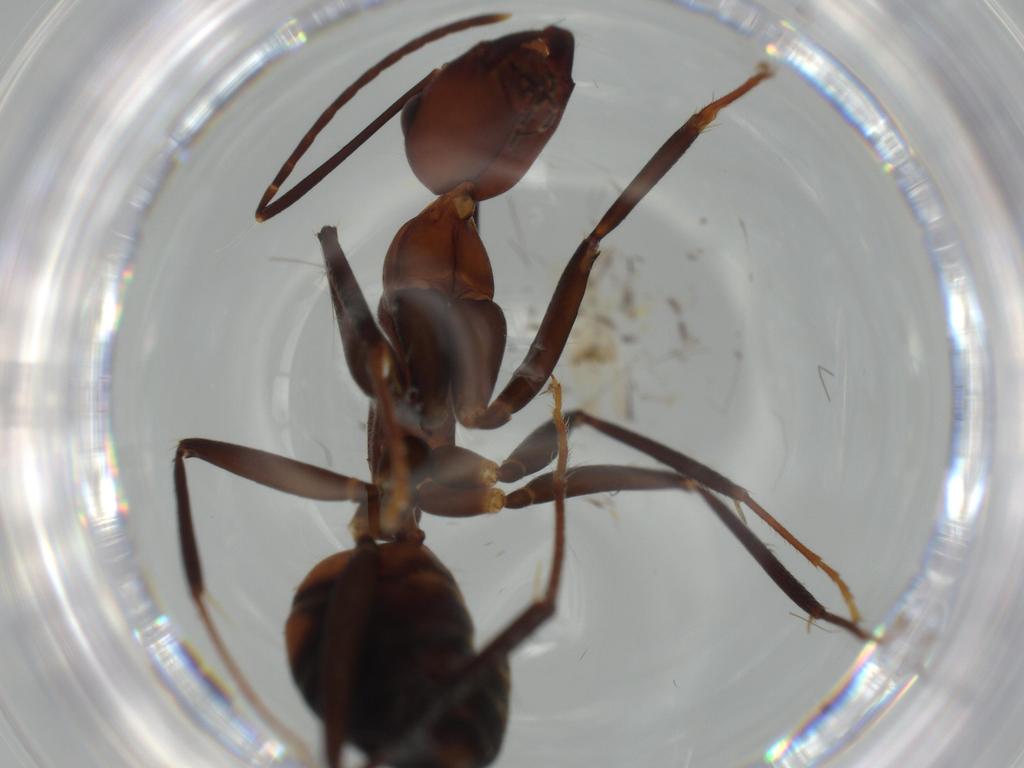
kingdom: Animalia
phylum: Arthropoda
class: Insecta
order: Hymenoptera
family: Formicidae
